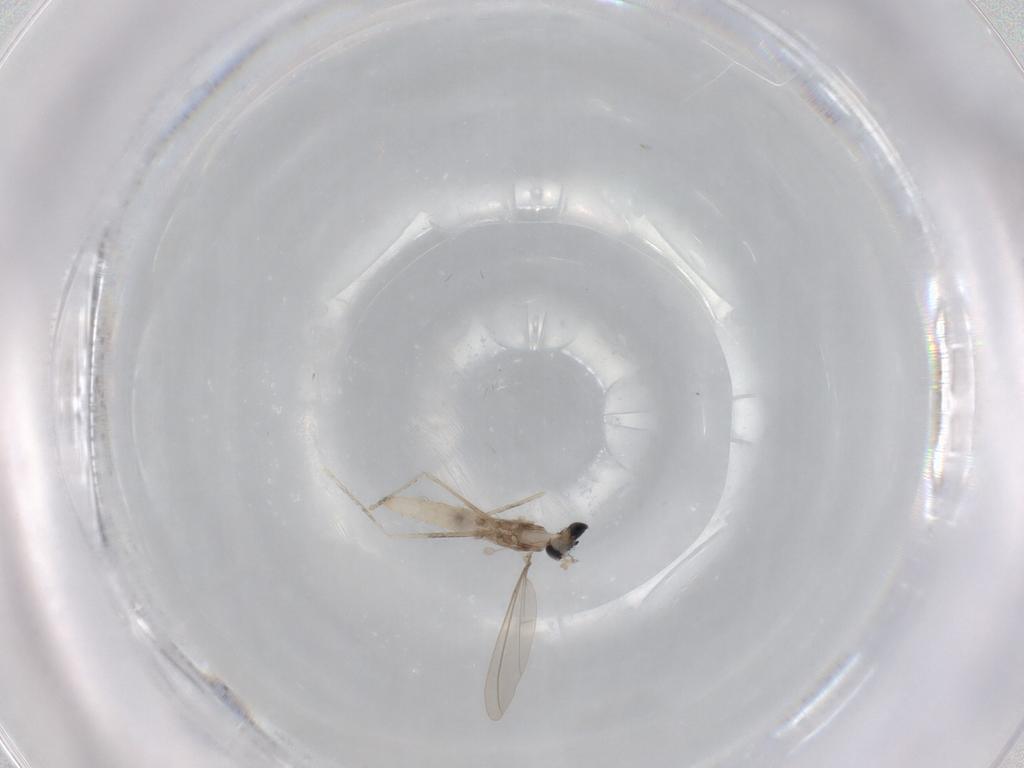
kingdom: Animalia
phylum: Arthropoda
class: Insecta
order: Diptera
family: Cecidomyiidae
